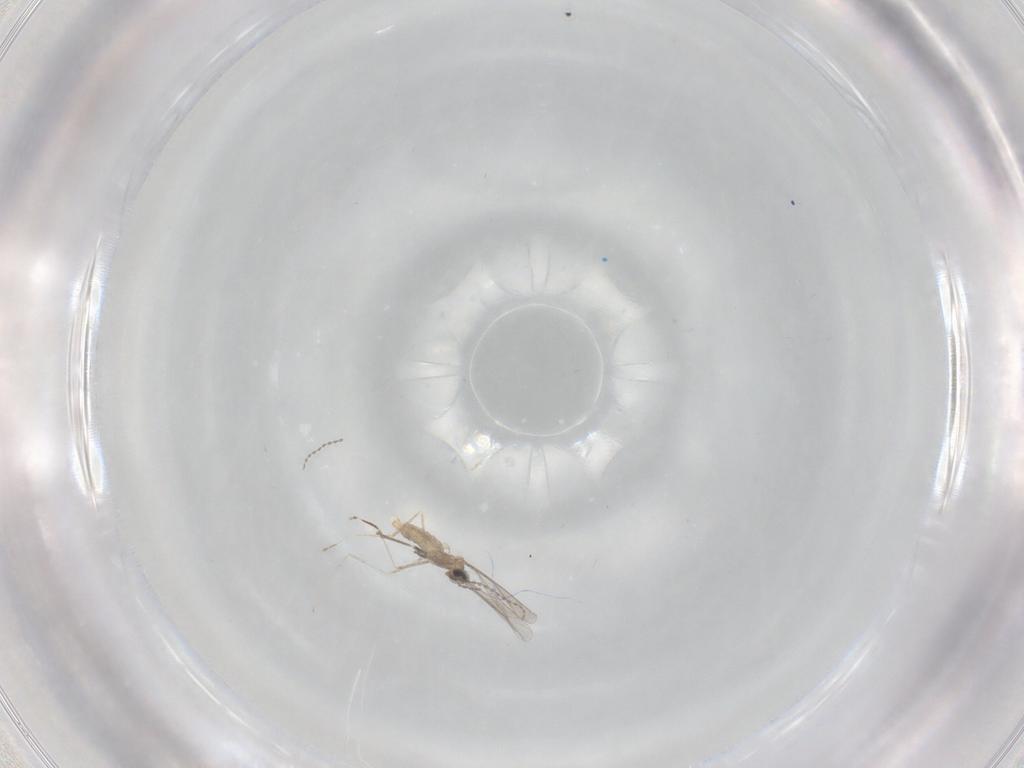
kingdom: Animalia
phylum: Arthropoda
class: Insecta
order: Diptera
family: Cecidomyiidae
